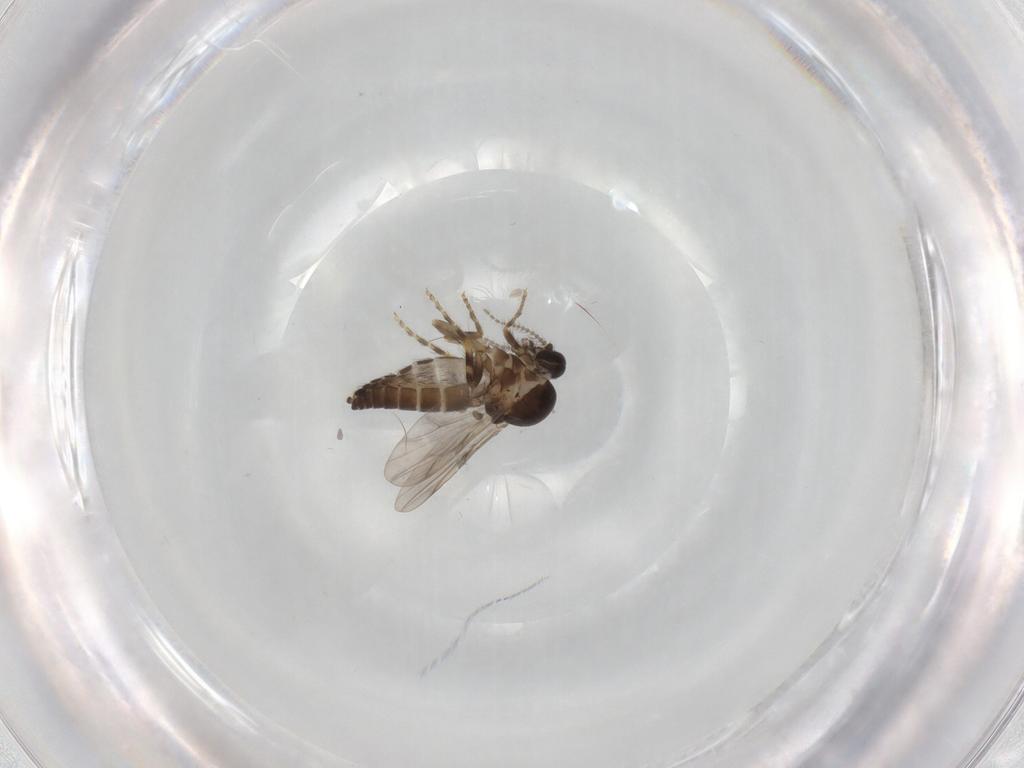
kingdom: Animalia
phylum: Arthropoda
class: Insecta
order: Diptera
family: Ceratopogonidae
